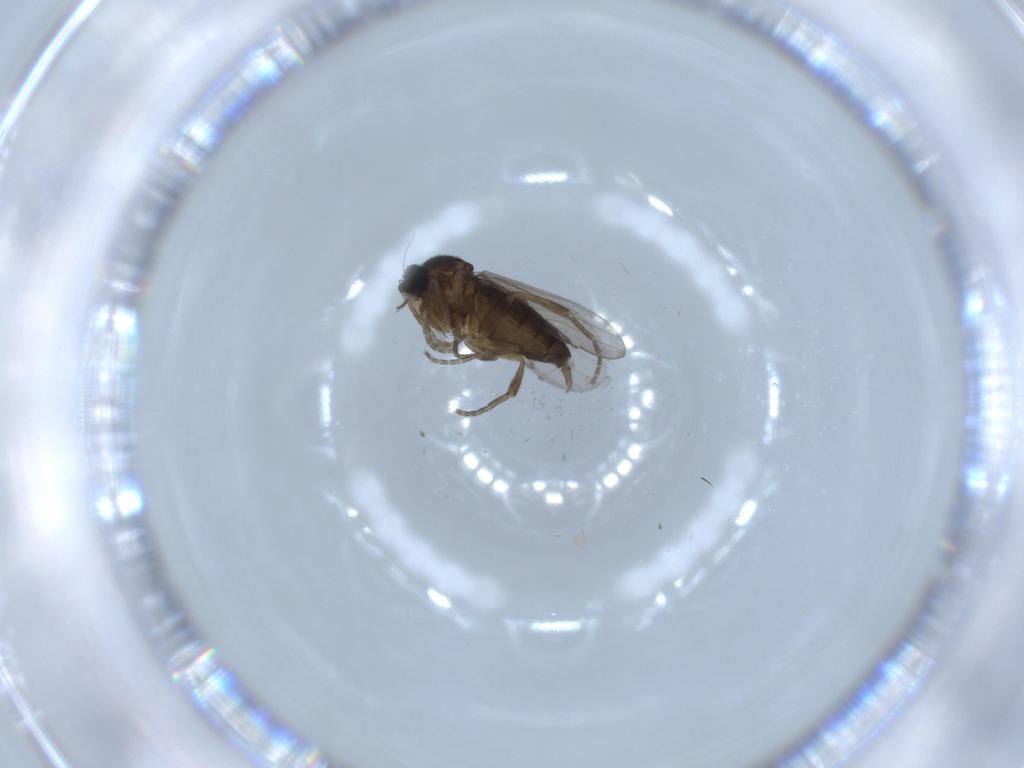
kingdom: Animalia
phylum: Arthropoda
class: Insecta
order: Diptera
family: Phoridae
